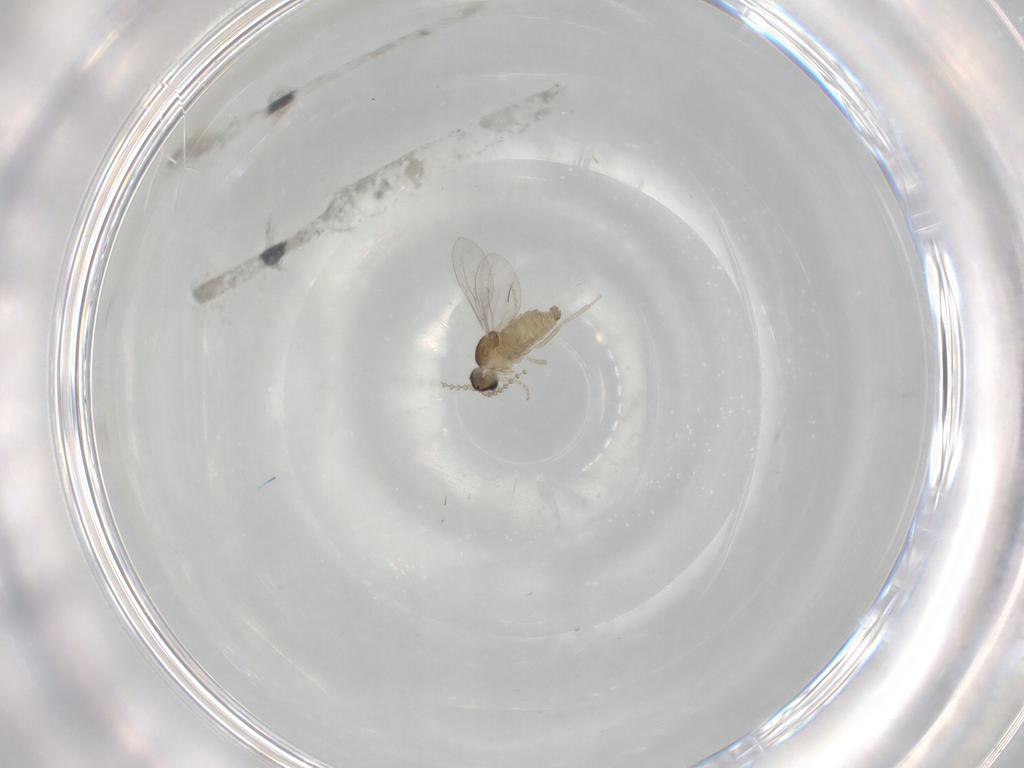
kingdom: Animalia
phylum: Arthropoda
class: Insecta
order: Diptera
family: Cecidomyiidae
